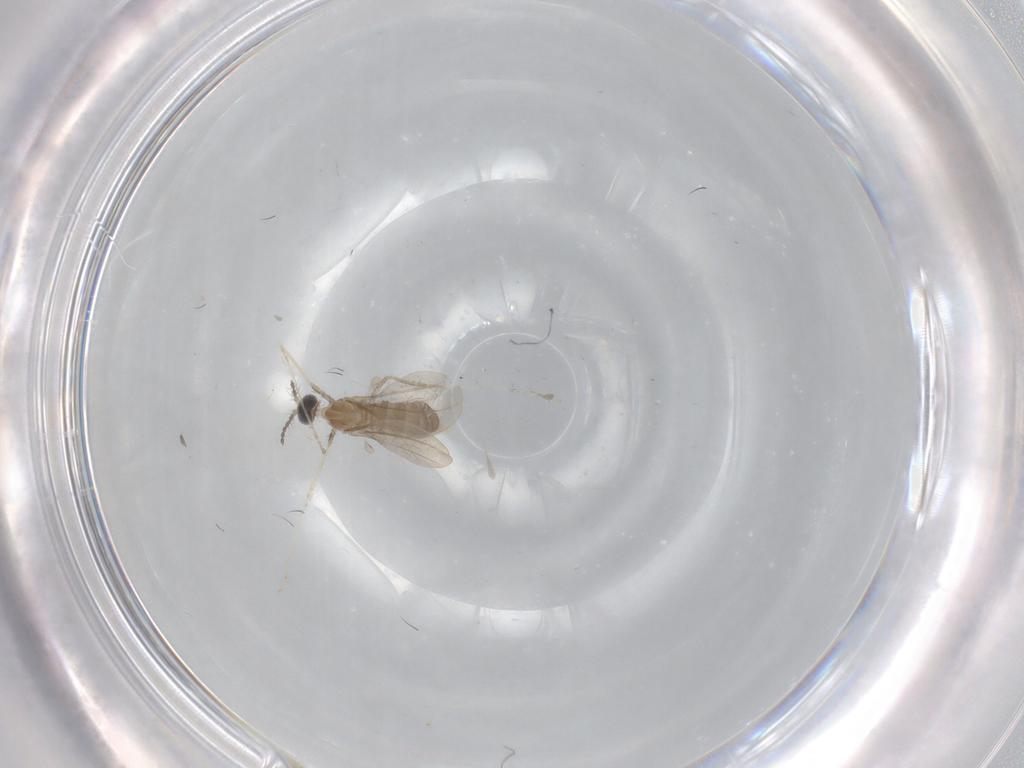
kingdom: Animalia
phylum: Arthropoda
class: Insecta
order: Diptera
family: Cecidomyiidae
